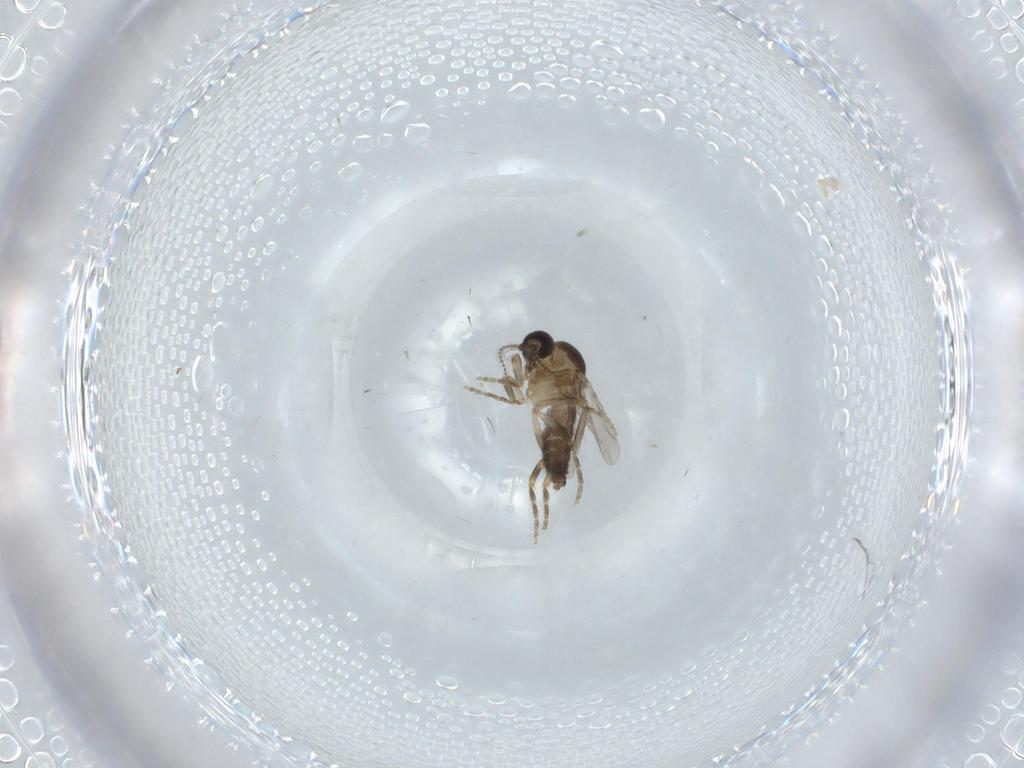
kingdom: Animalia
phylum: Arthropoda
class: Insecta
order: Diptera
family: Ceratopogonidae
